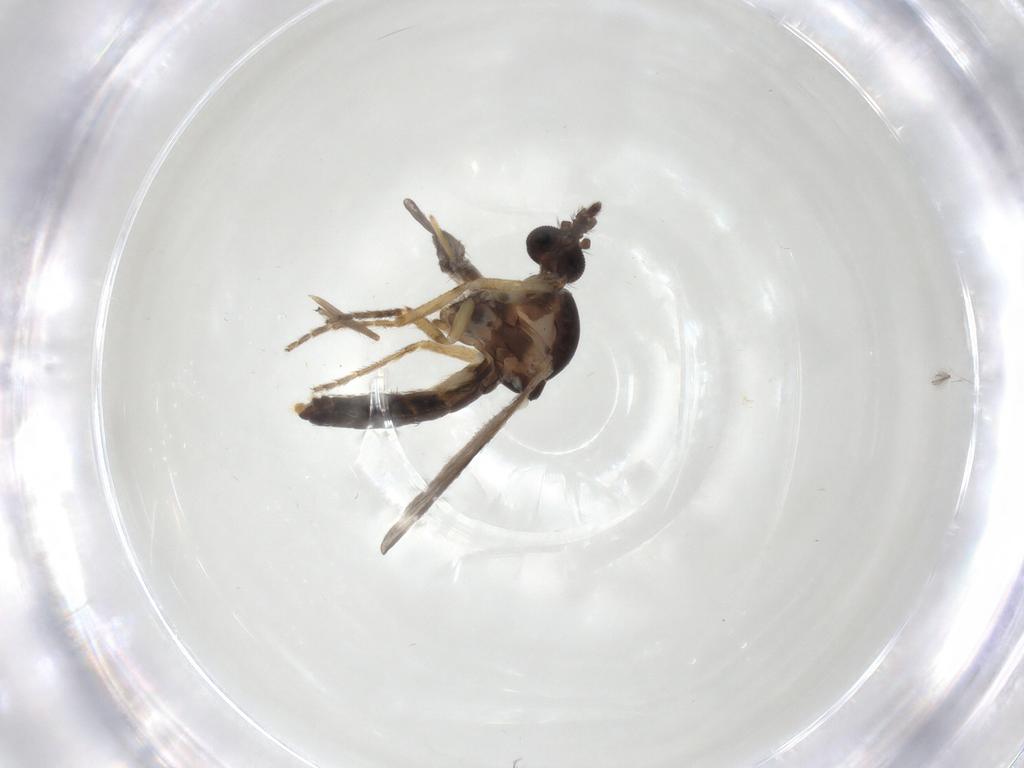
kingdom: Animalia
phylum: Arthropoda
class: Insecta
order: Diptera
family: Ceratopogonidae
